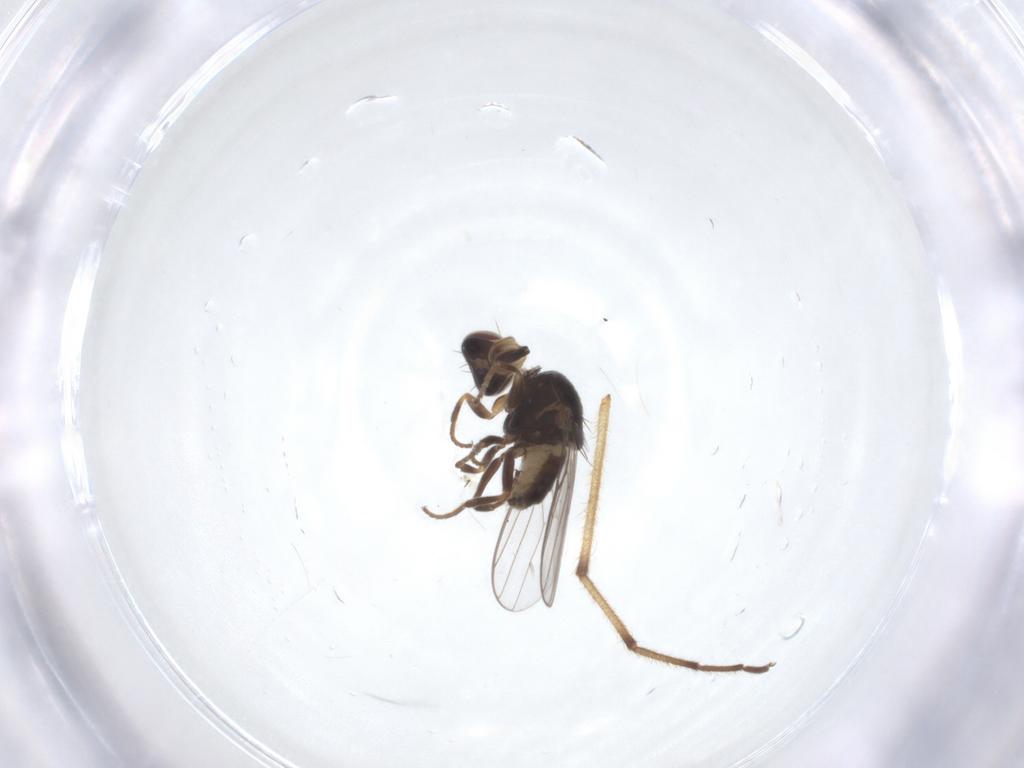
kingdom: Animalia
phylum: Arthropoda
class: Insecta
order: Diptera
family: Chloropidae
